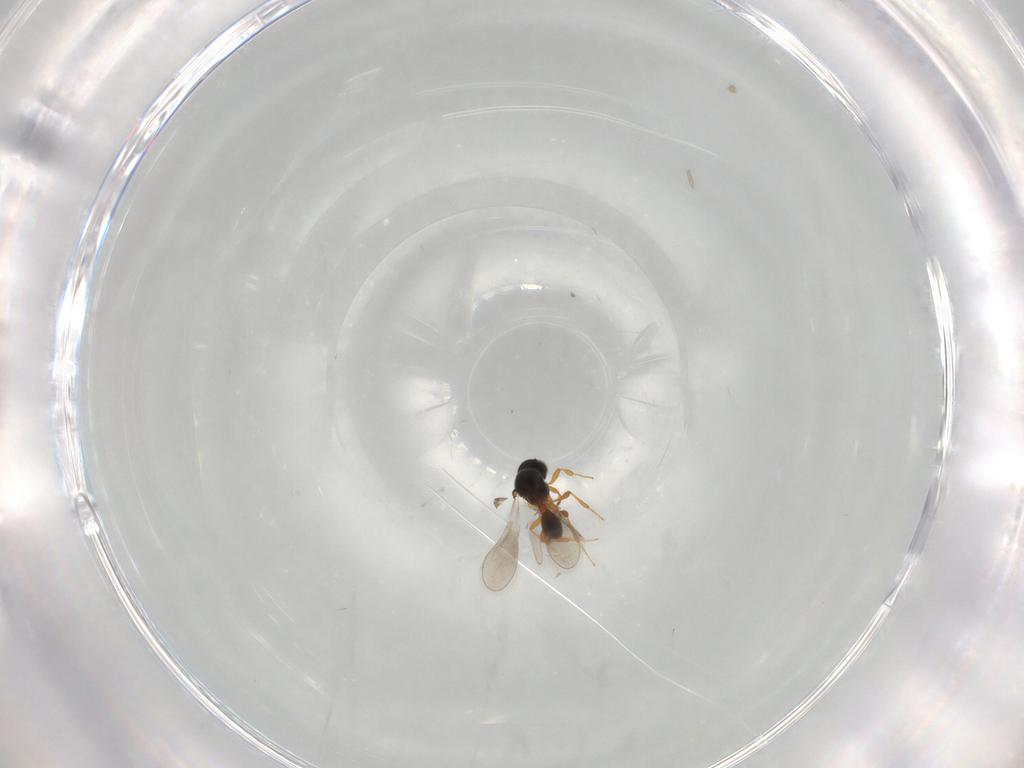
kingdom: Animalia
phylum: Arthropoda
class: Insecta
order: Hymenoptera
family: Platygastridae
